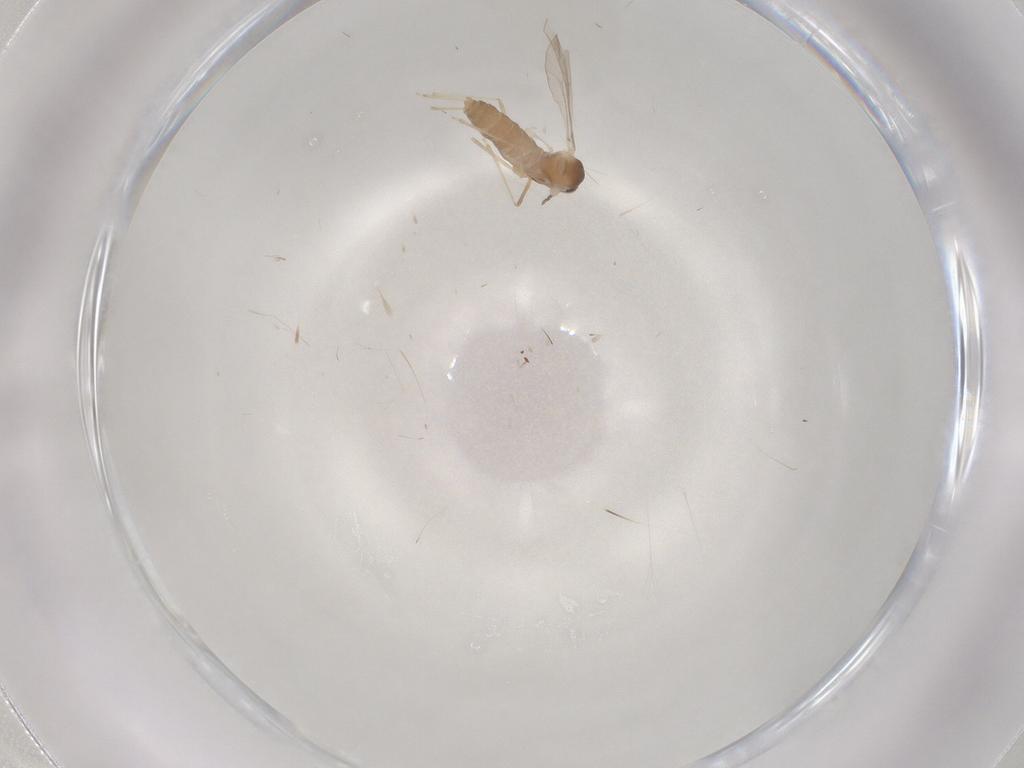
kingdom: Animalia
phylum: Arthropoda
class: Insecta
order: Diptera
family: Cecidomyiidae
